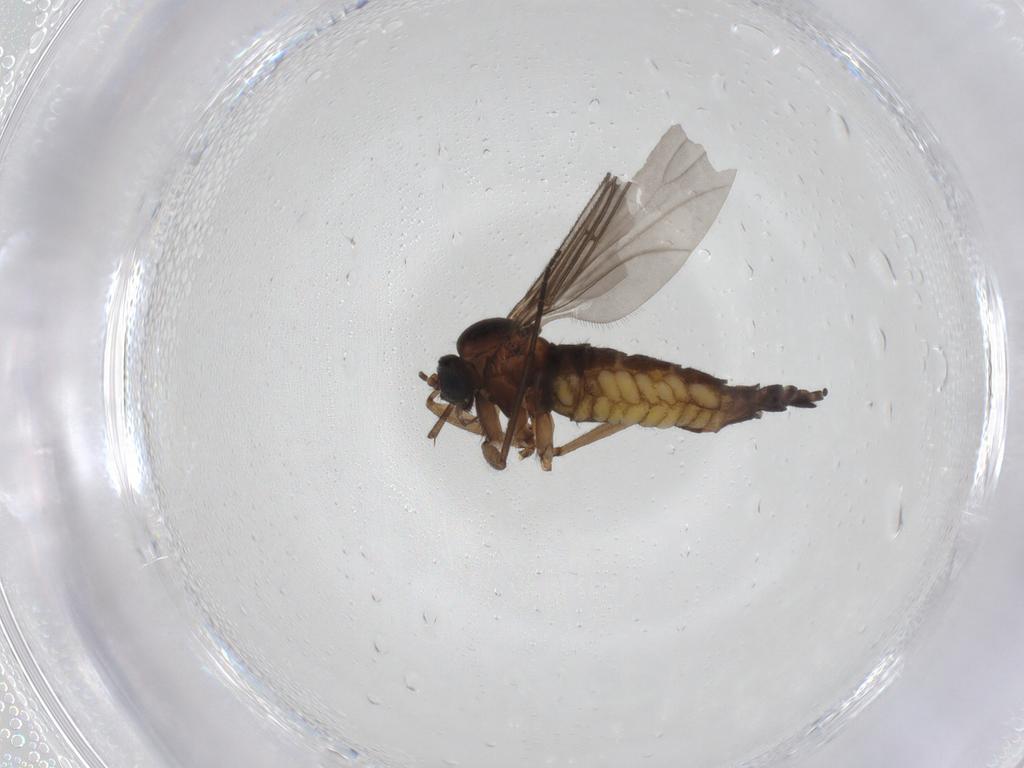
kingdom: Animalia
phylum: Arthropoda
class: Insecta
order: Diptera
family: Sciaridae
